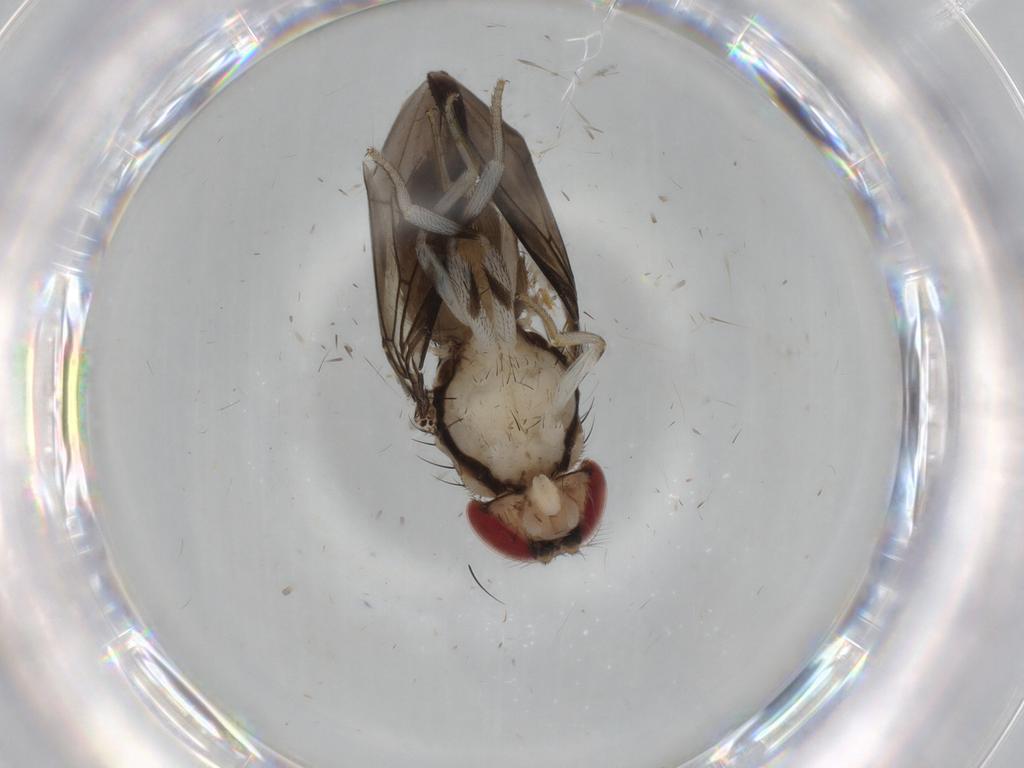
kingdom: Animalia
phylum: Arthropoda
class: Insecta
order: Diptera
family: Drosophilidae
